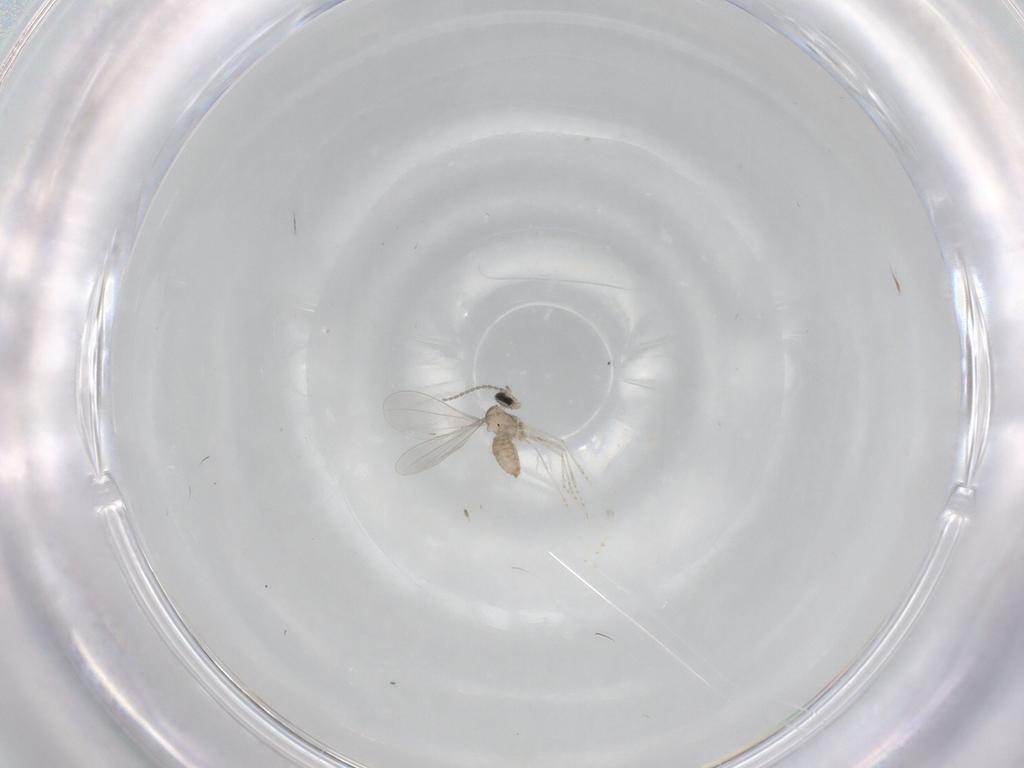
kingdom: Animalia
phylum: Arthropoda
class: Insecta
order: Diptera
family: Cecidomyiidae
